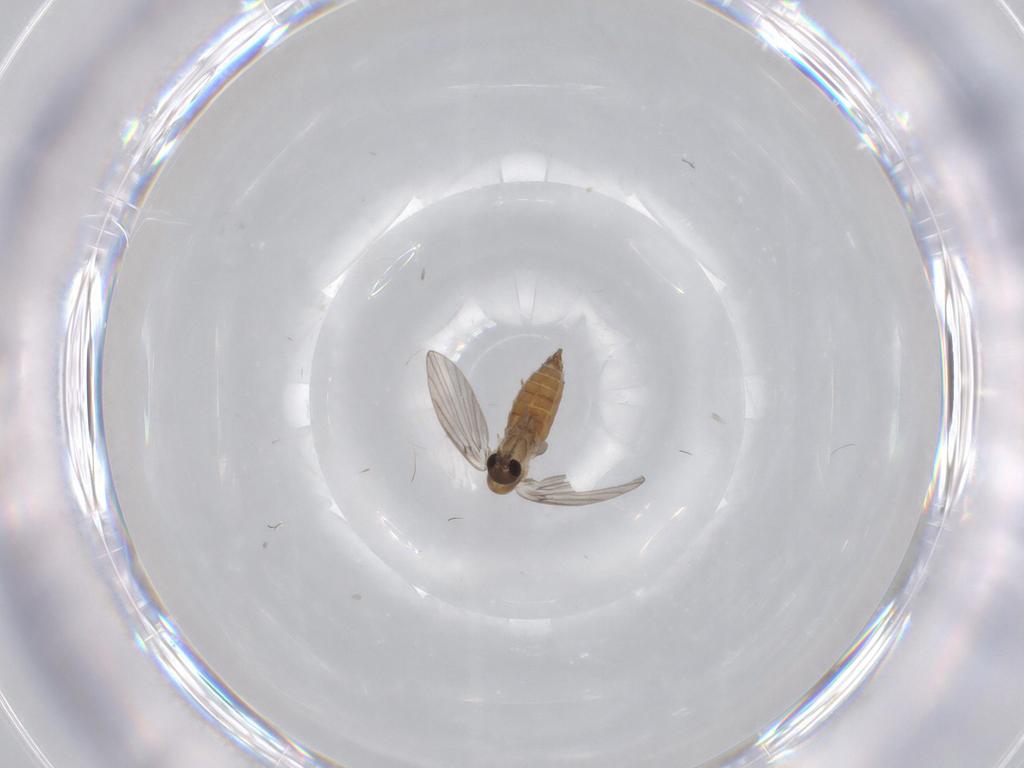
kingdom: Animalia
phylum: Arthropoda
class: Insecta
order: Diptera
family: Psychodidae
